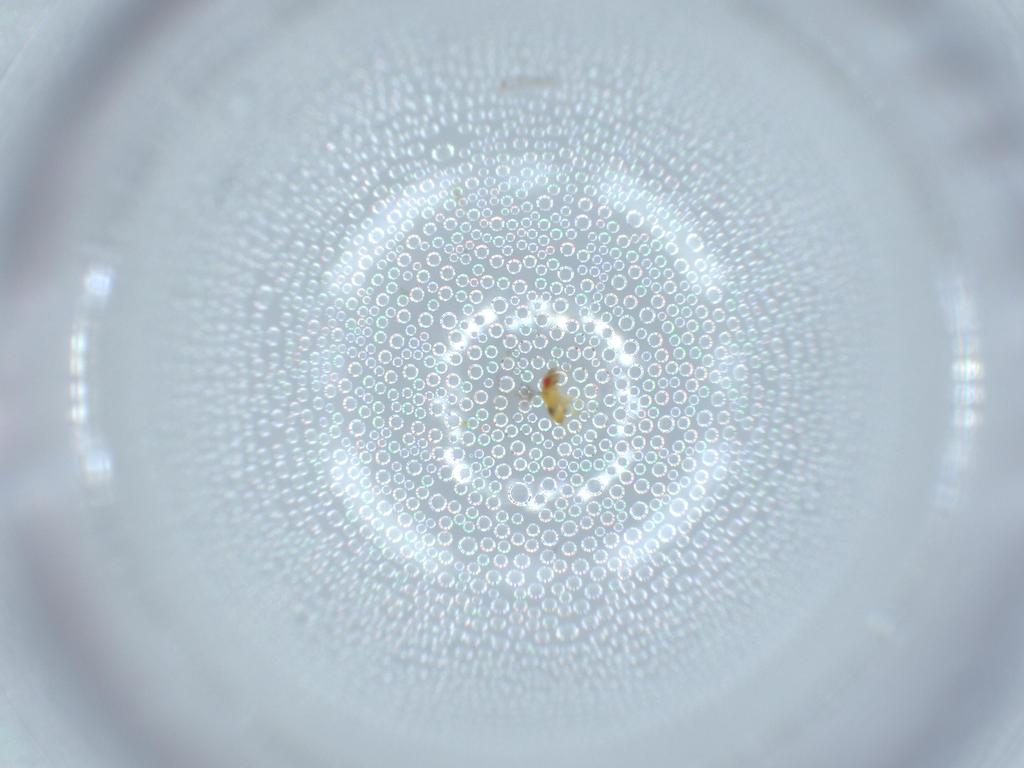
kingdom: Animalia
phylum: Arthropoda
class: Insecta
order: Hymenoptera
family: Trichogrammatidae
